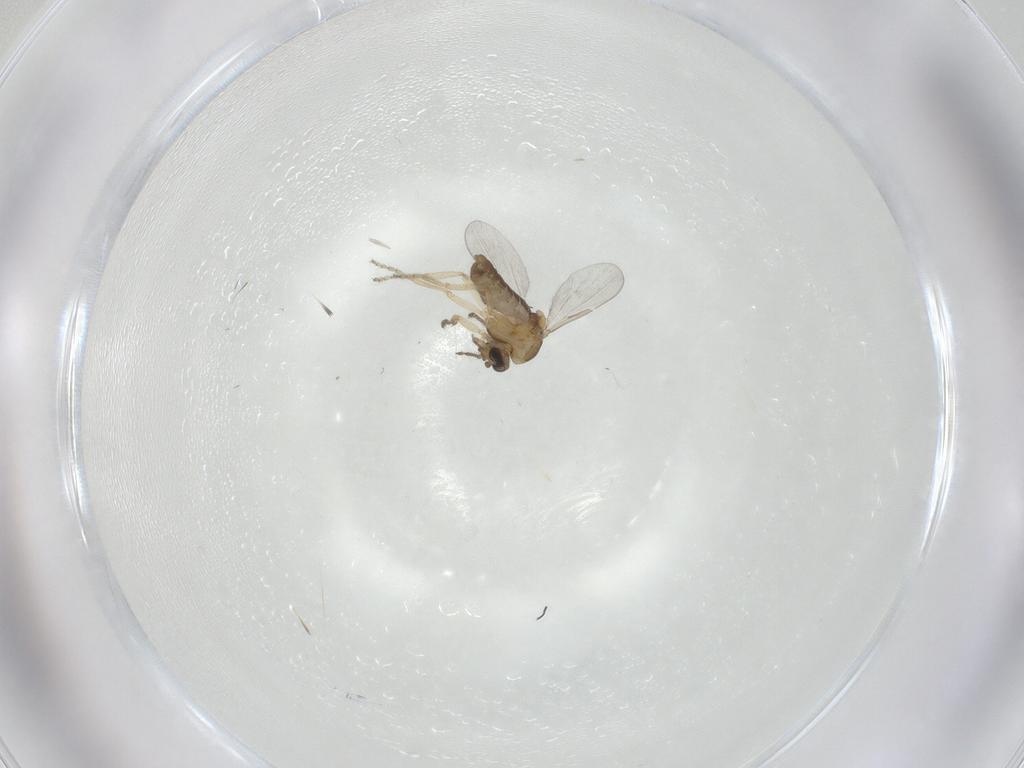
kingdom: Animalia
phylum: Arthropoda
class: Insecta
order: Diptera
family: Ceratopogonidae
